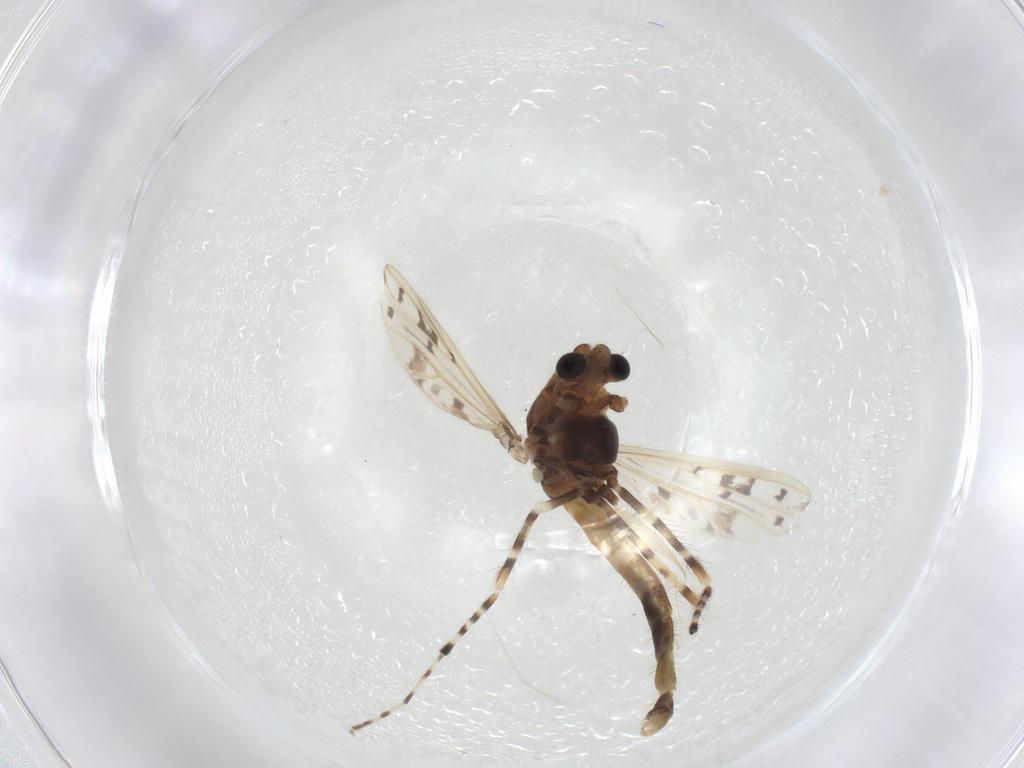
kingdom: Animalia
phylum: Arthropoda
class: Insecta
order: Diptera
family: Chironomidae
